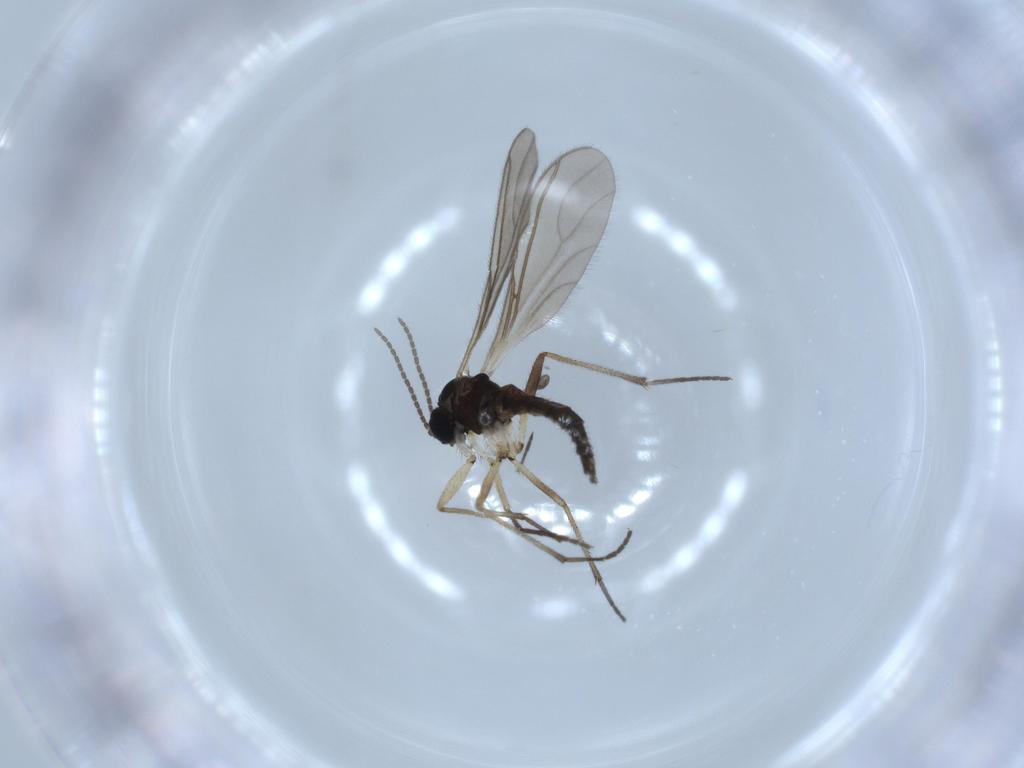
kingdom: Animalia
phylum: Arthropoda
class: Insecta
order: Diptera
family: Sciaridae
